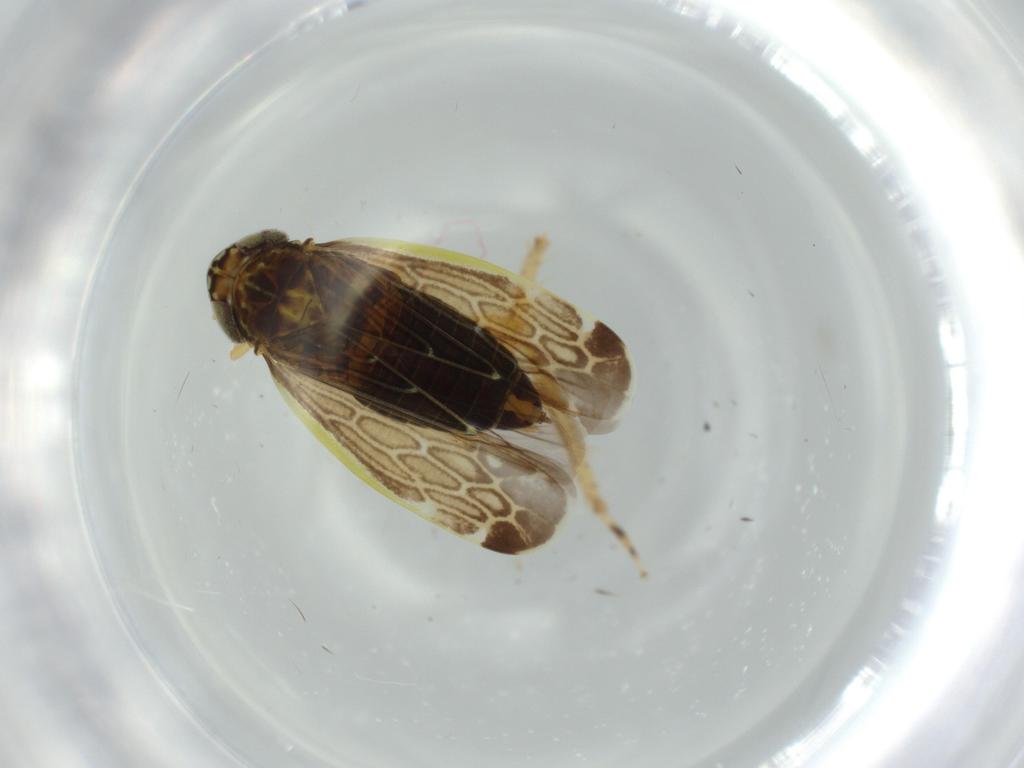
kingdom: Animalia
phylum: Arthropoda
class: Insecta
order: Hemiptera
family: Cicadellidae
